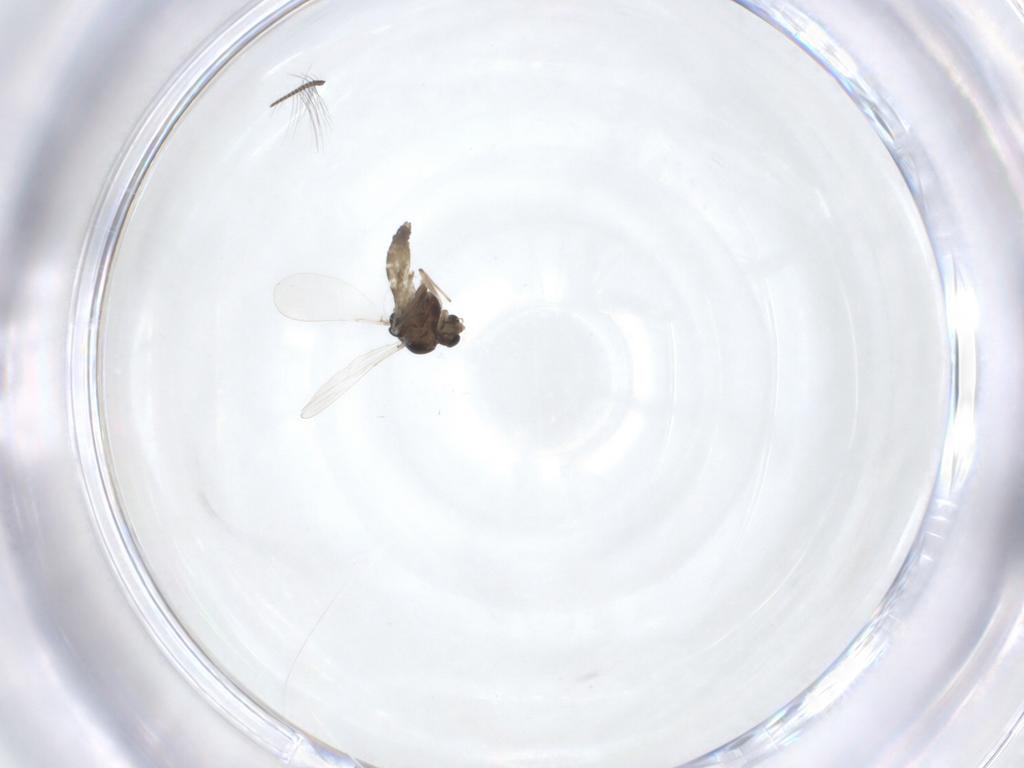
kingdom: Animalia
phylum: Arthropoda
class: Insecta
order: Diptera
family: Chironomidae
